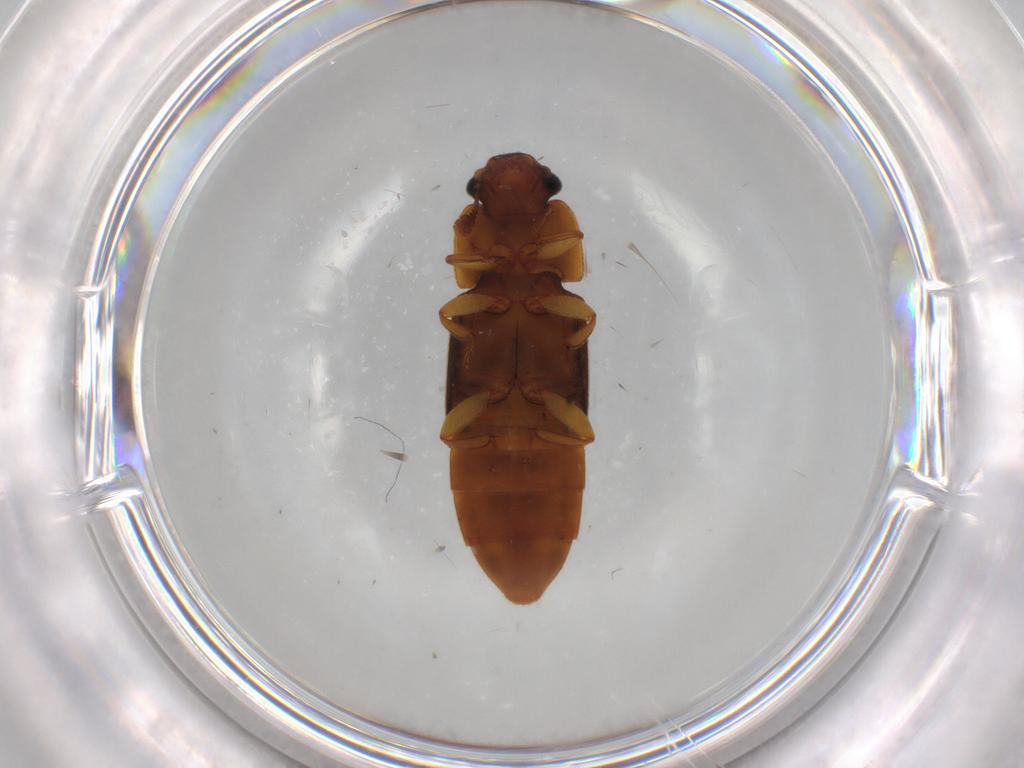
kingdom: Animalia
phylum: Arthropoda
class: Insecta
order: Coleoptera
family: Nitidulidae
